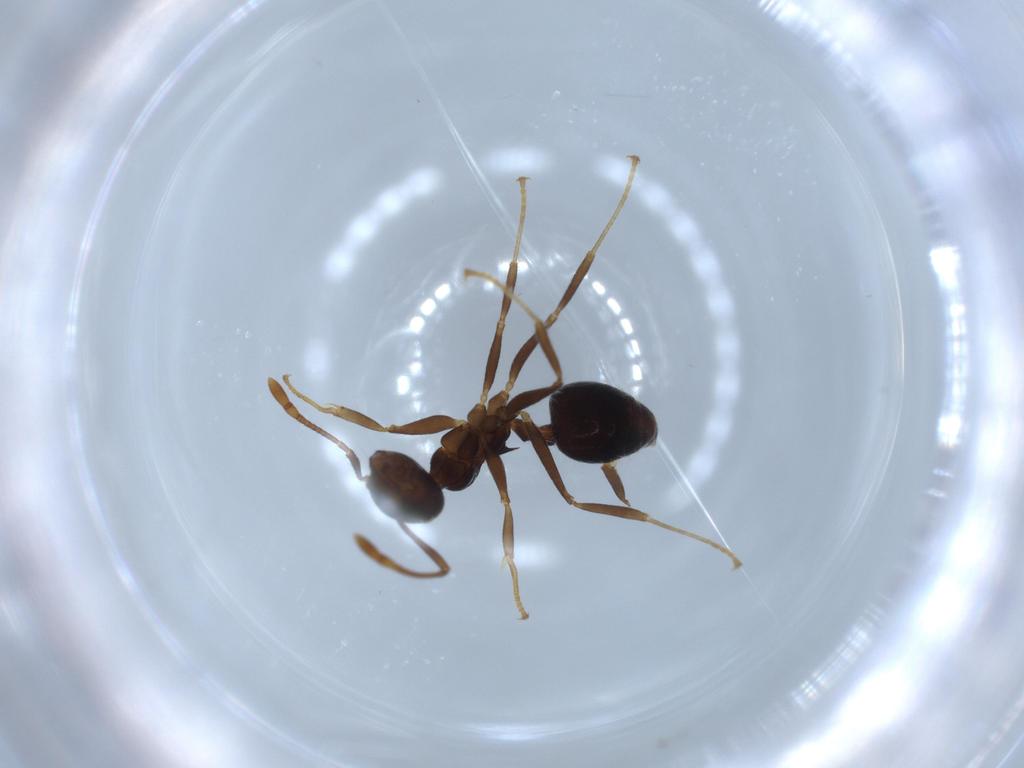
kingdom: Animalia
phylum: Arthropoda
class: Insecta
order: Hymenoptera
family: Formicidae
